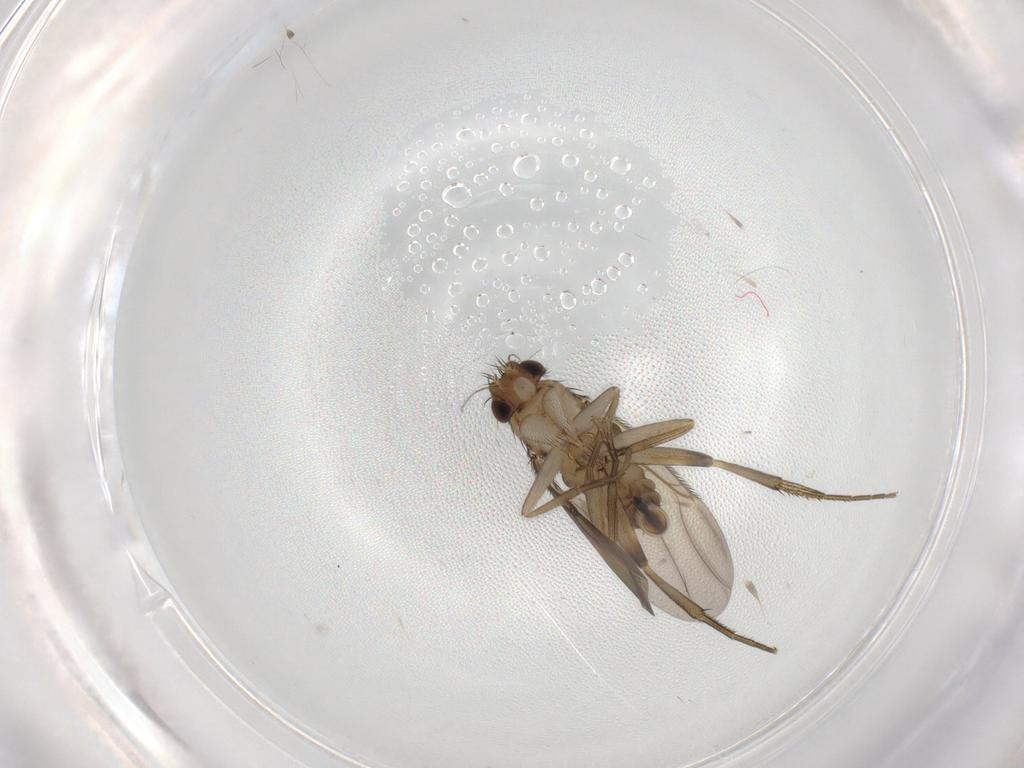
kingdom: Animalia
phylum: Arthropoda
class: Insecta
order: Diptera
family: Phoridae
